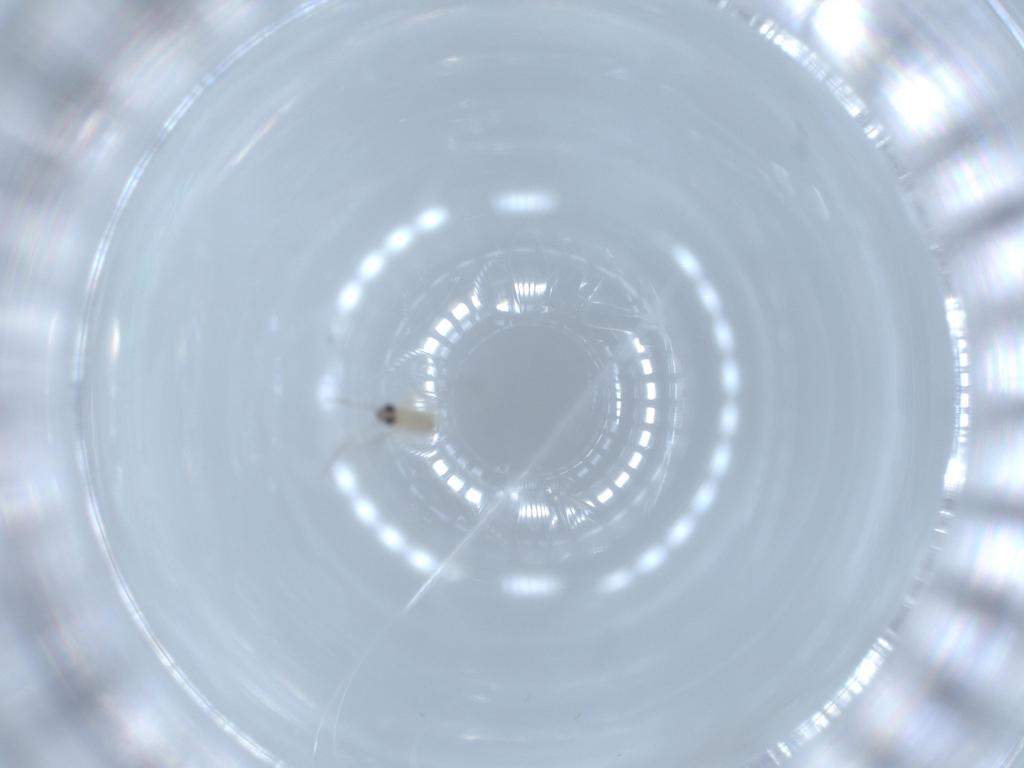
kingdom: Animalia
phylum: Arthropoda
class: Insecta
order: Diptera
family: Cecidomyiidae
